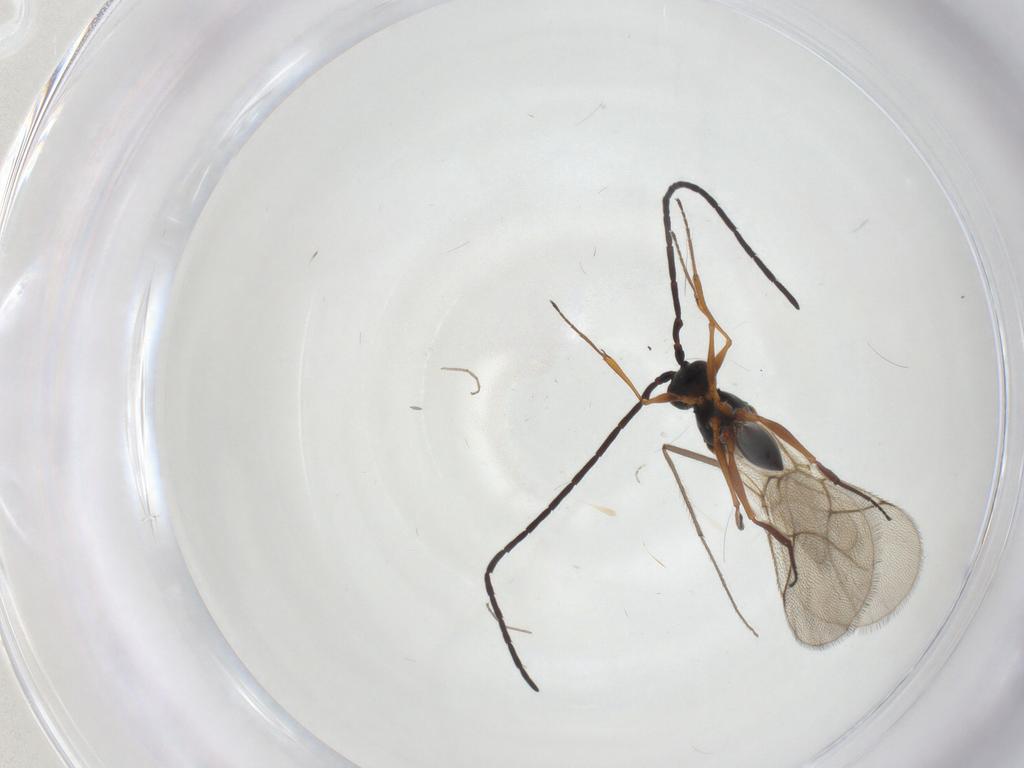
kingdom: Animalia
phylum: Arthropoda
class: Insecta
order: Hymenoptera
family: Figitidae
